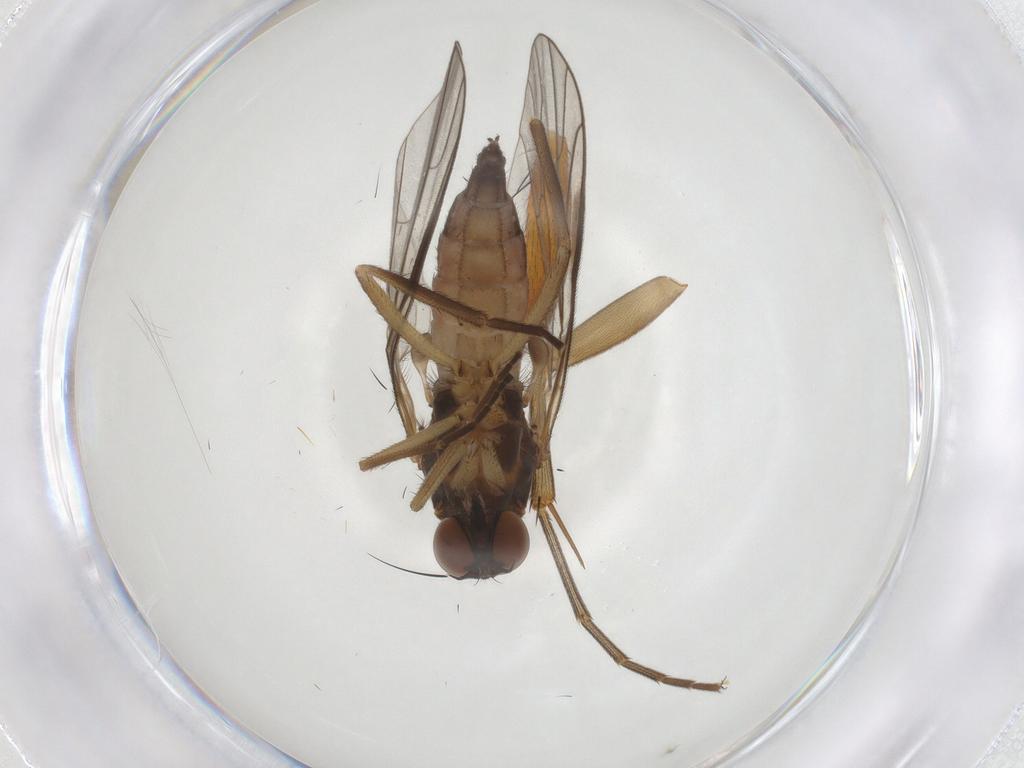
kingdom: Animalia
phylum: Arthropoda
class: Insecta
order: Diptera
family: Empididae
